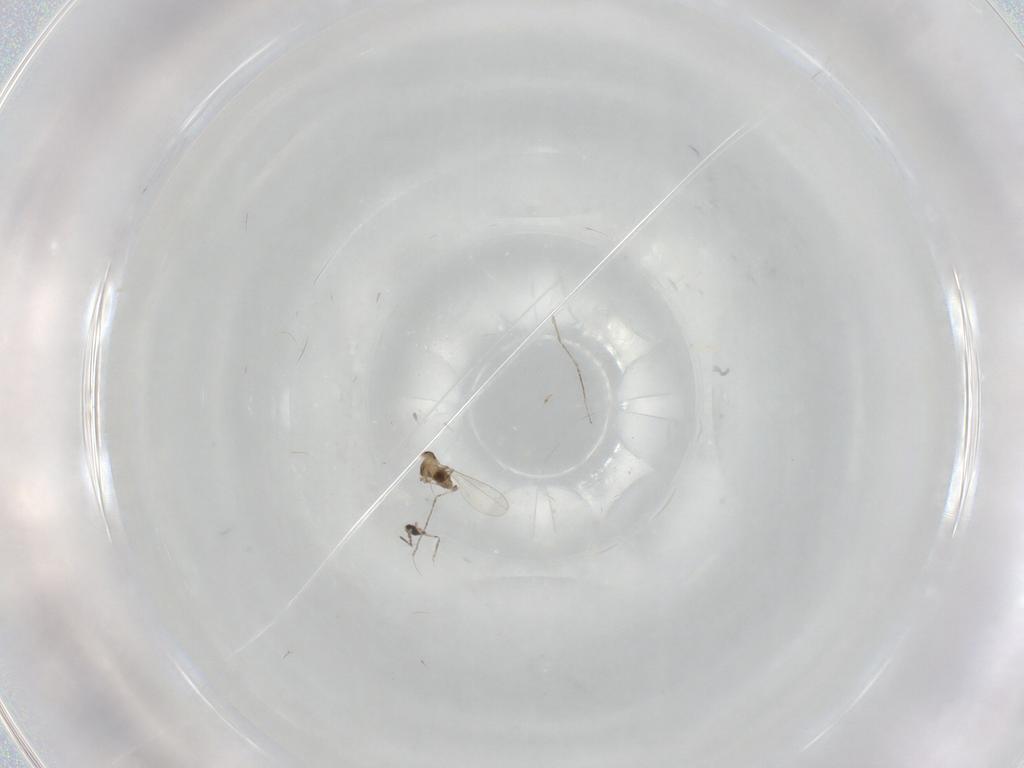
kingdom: Animalia
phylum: Arthropoda
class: Insecta
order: Diptera
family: Cecidomyiidae
